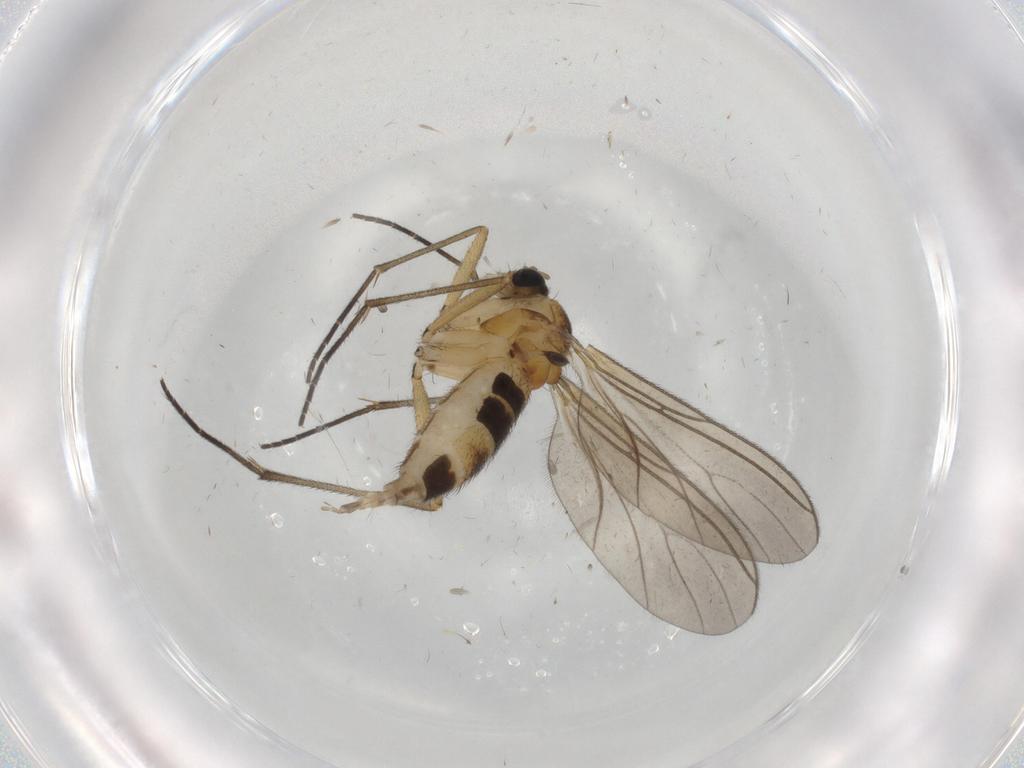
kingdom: Animalia
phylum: Arthropoda
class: Insecta
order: Diptera
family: Sciaridae
